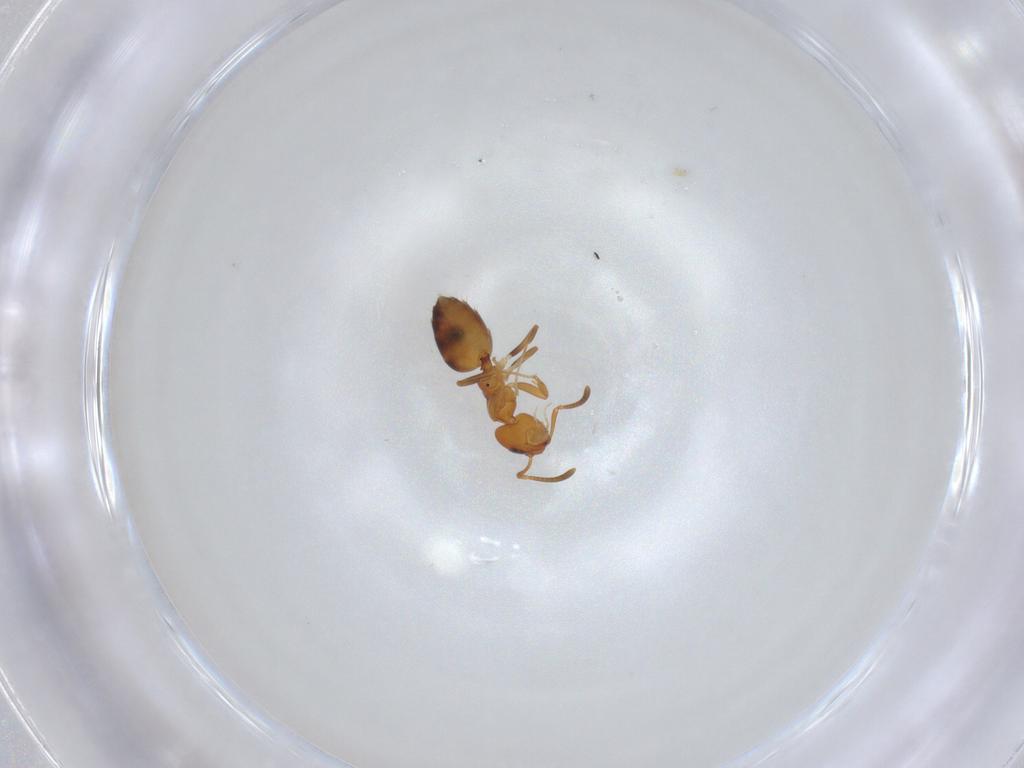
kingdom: Animalia
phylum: Arthropoda
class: Insecta
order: Hymenoptera
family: Formicidae
